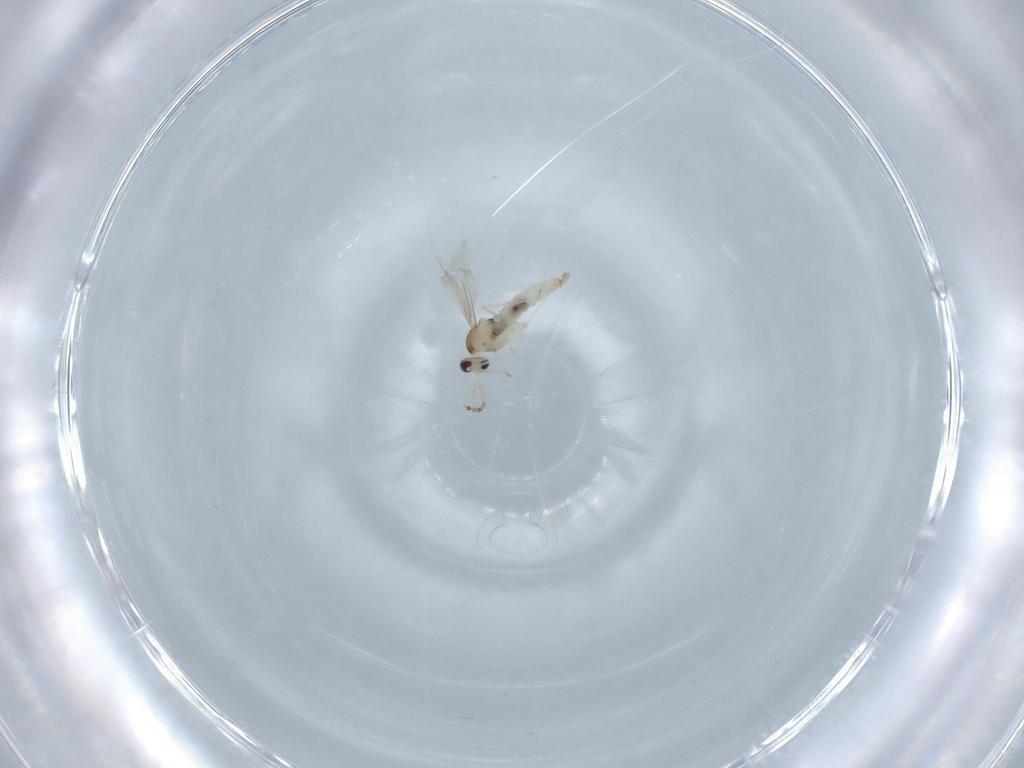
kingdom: Animalia
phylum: Arthropoda
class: Insecta
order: Diptera
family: Cecidomyiidae
